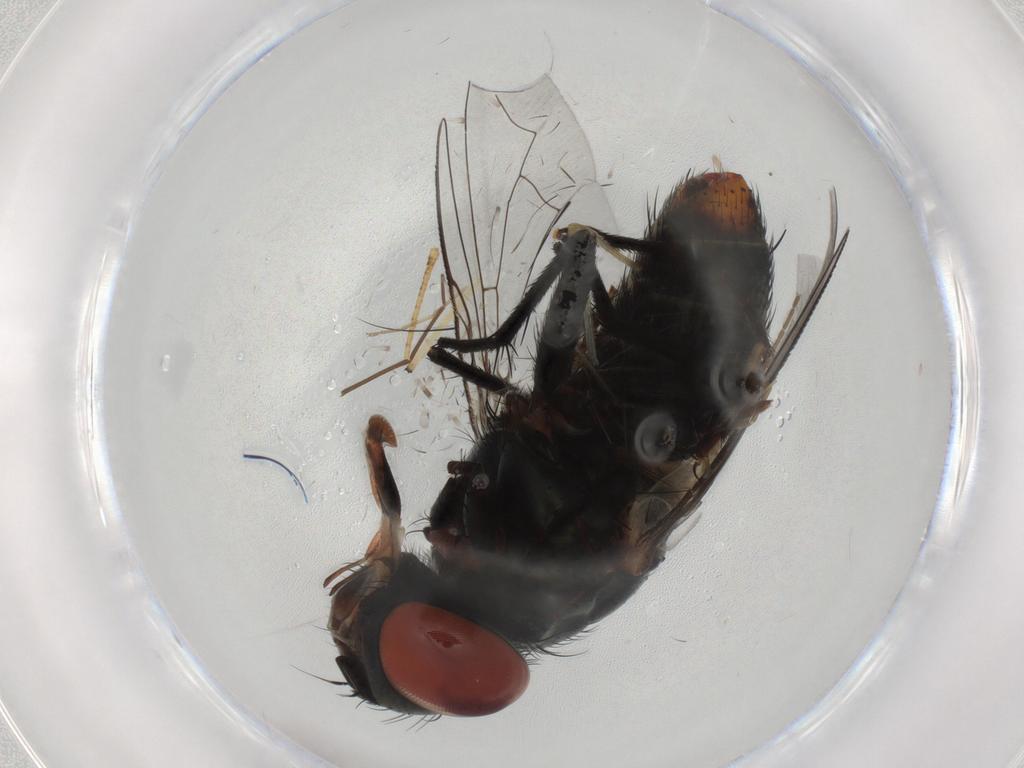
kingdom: Animalia
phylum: Arthropoda
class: Insecta
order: Diptera
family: Sarcophagidae
